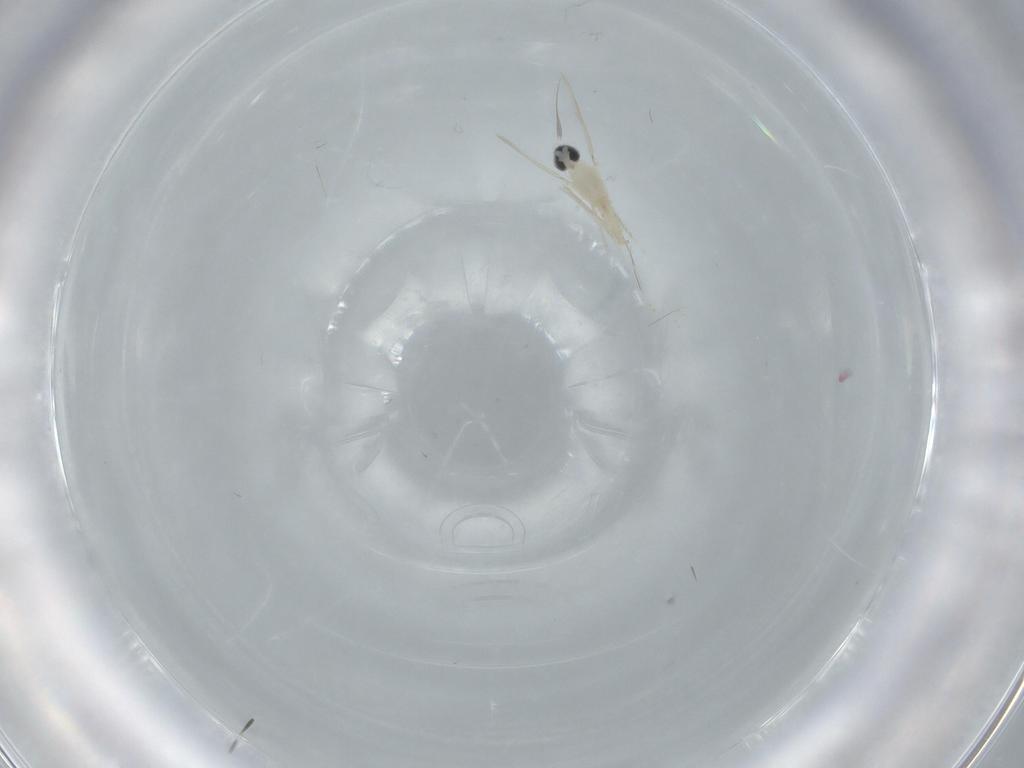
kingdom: Animalia
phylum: Arthropoda
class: Insecta
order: Diptera
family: Cecidomyiidae
